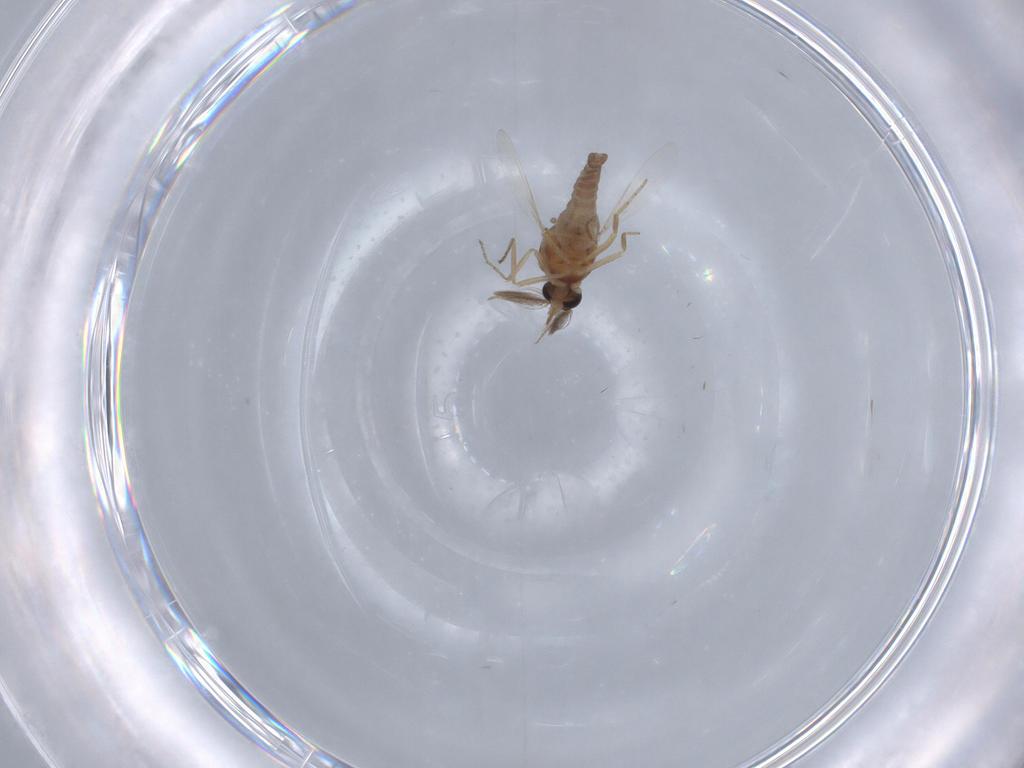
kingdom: Animalia
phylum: Arthropoda
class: Insecta
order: Diptera
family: Ceratopogonidae
